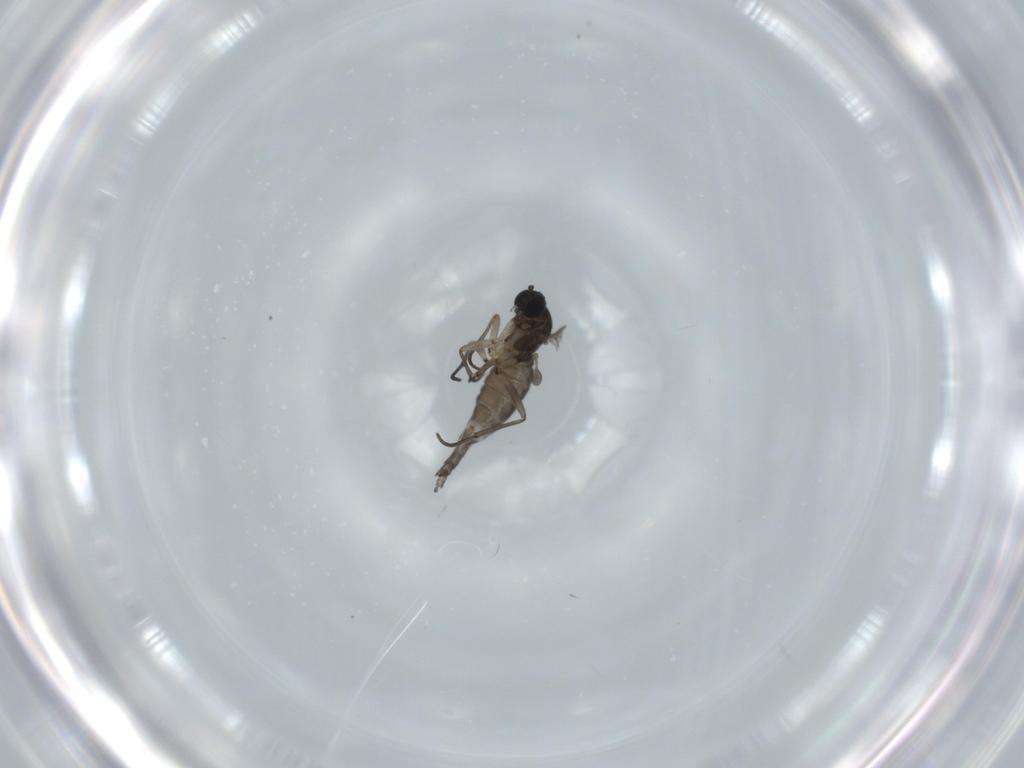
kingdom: Animalia
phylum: Arthropoda
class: Insecta
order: Diptera
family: Sciaridae
